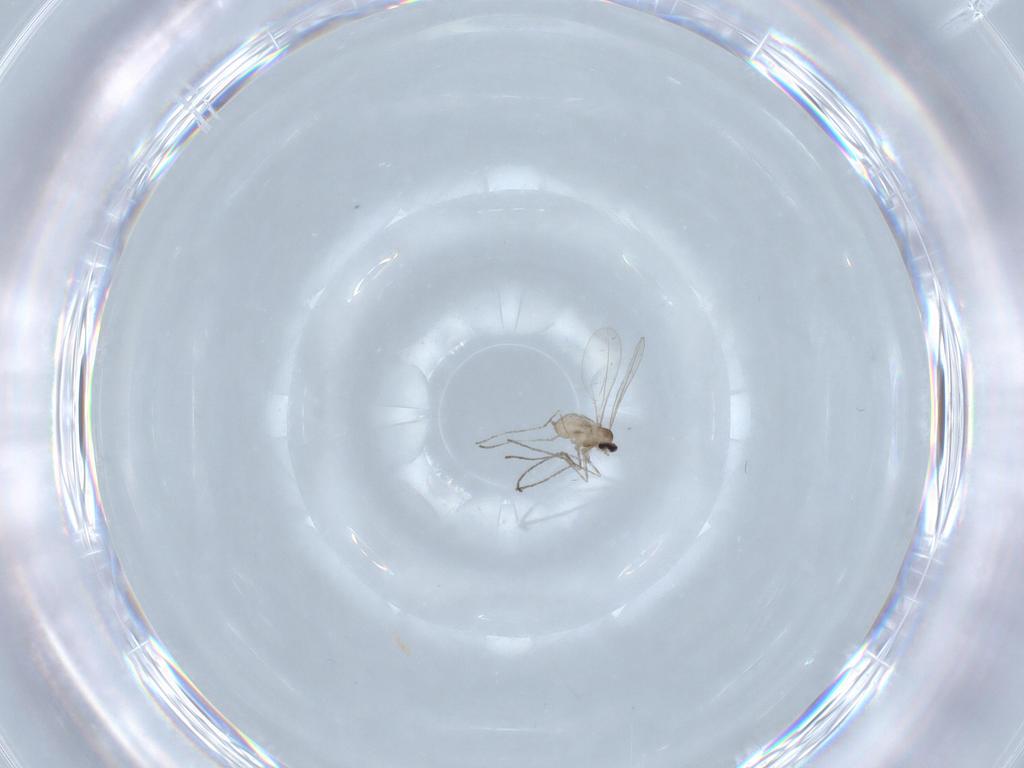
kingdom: Animalia
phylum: Arthropoda
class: Insecta
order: Diptera
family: Cecidomyiidae
